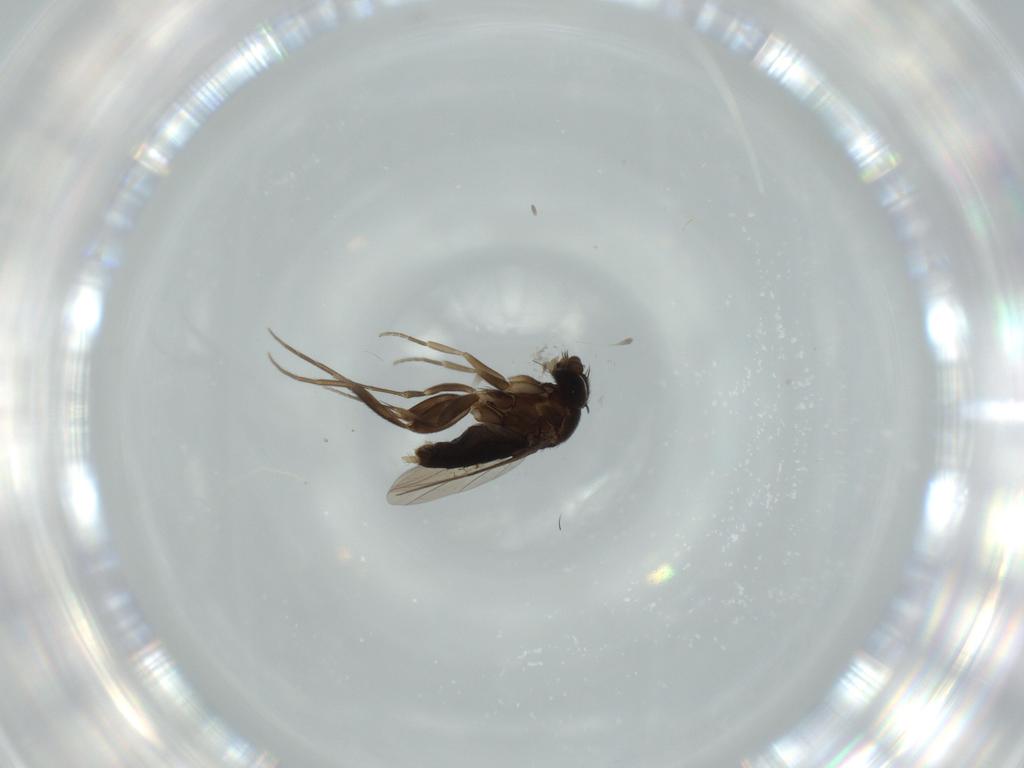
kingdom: Animalia
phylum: Arthropoda
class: Insecta
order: Diptera
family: Phoridae
